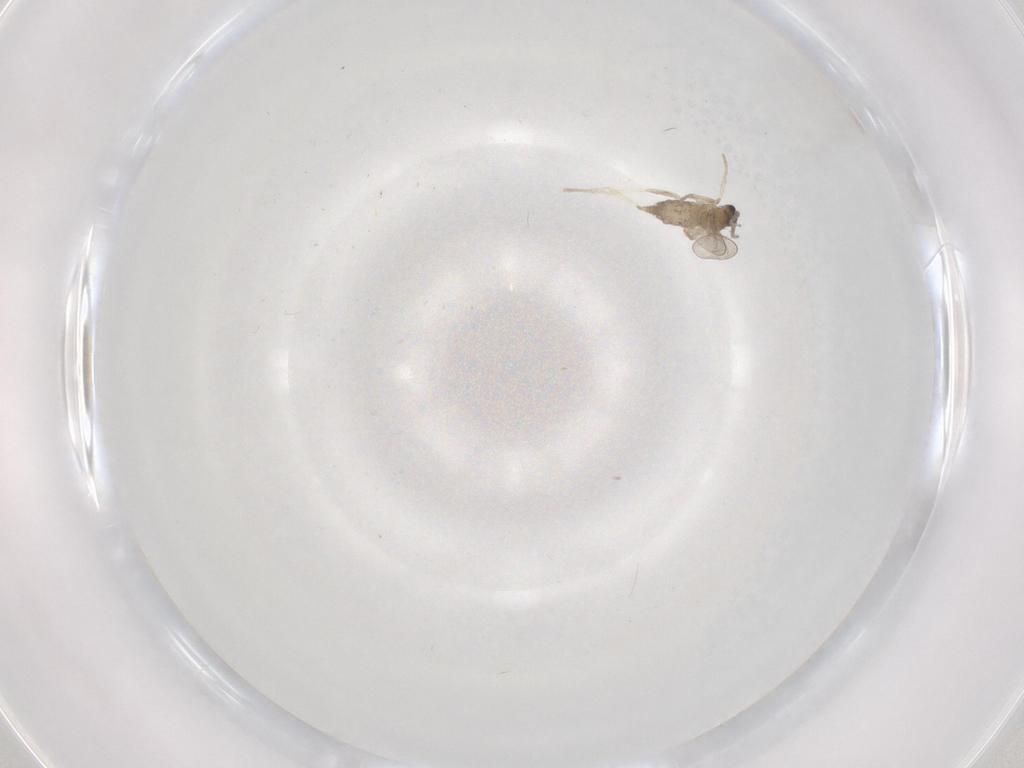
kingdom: Animalia
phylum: Arthropoda
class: Insecta
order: Diptera
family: Cecidomyiidae
